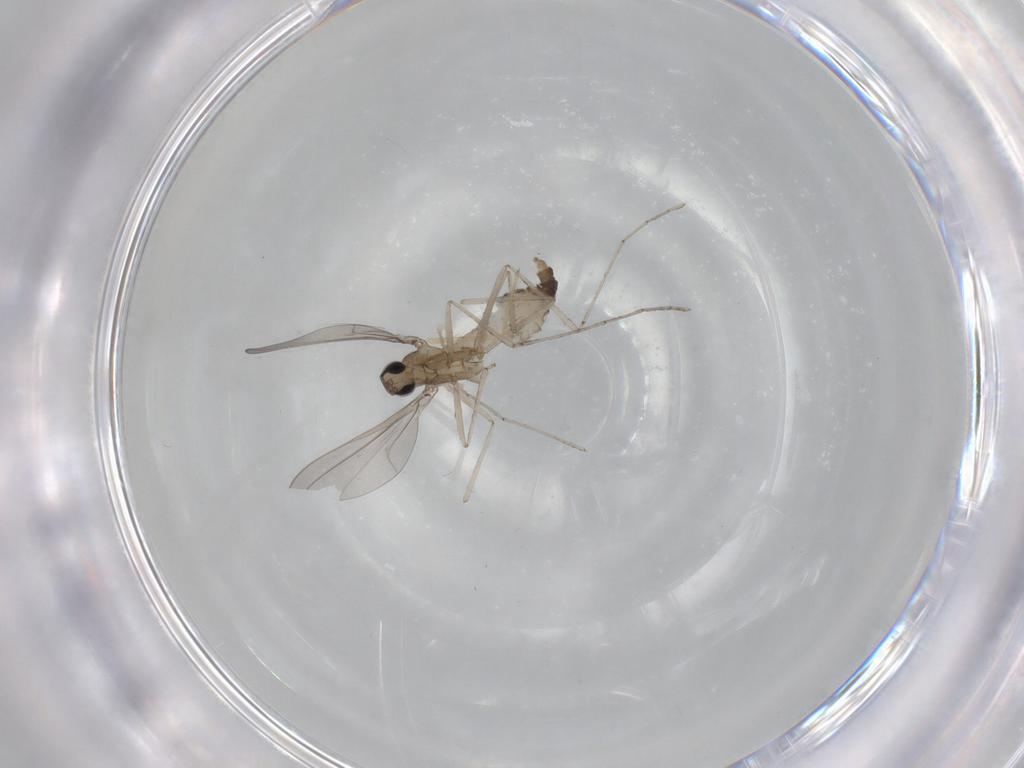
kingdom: Animalia
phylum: Arthropoda
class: Insecta
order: Diptera
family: Cecidomyiidae
